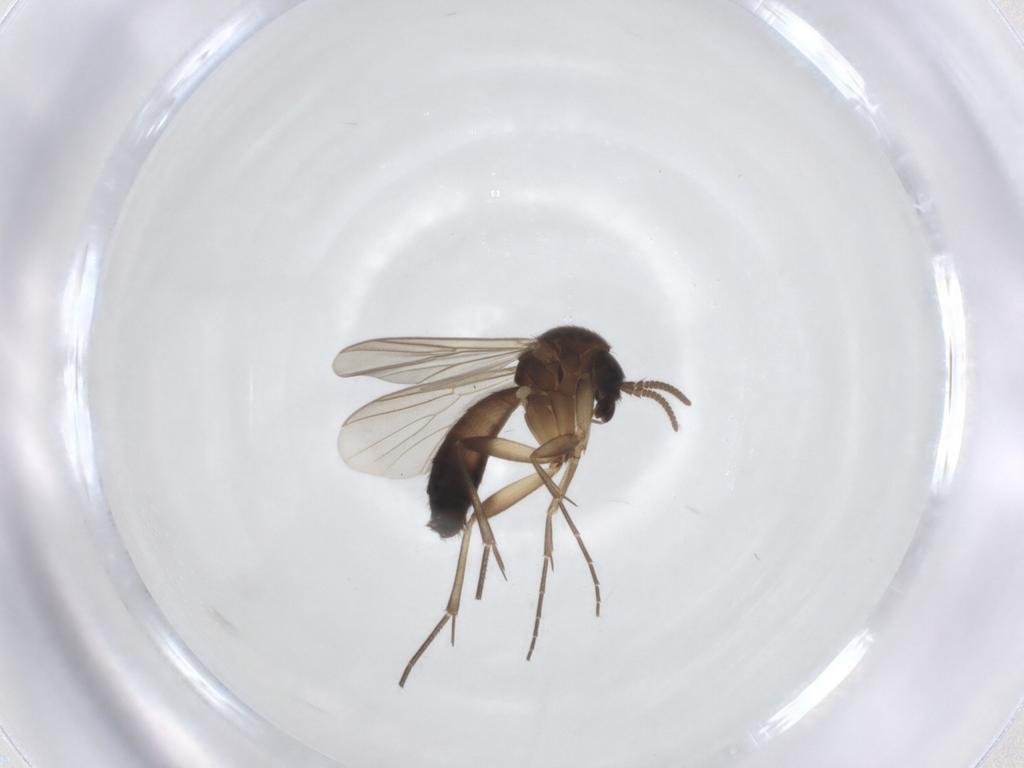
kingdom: Animalia
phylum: Arthropoda
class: Insecta
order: Diptera
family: Mycetophilidae
